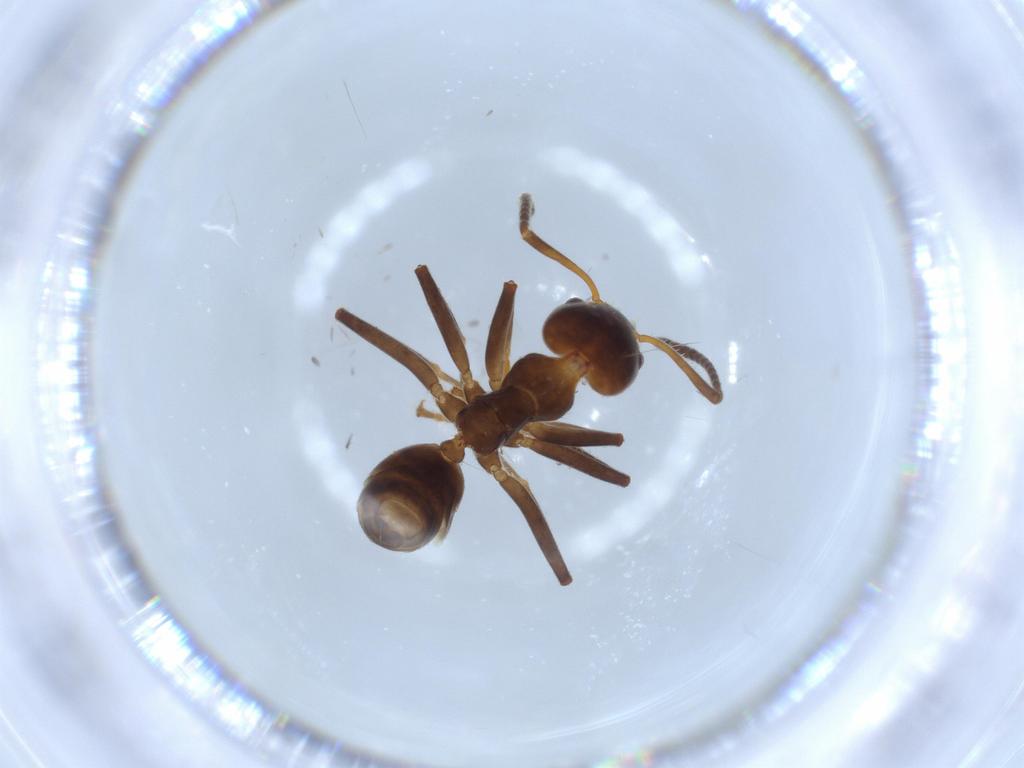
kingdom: Animalia
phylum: Arthropoda
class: Insecta
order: Hymenoptera
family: Formicidae
